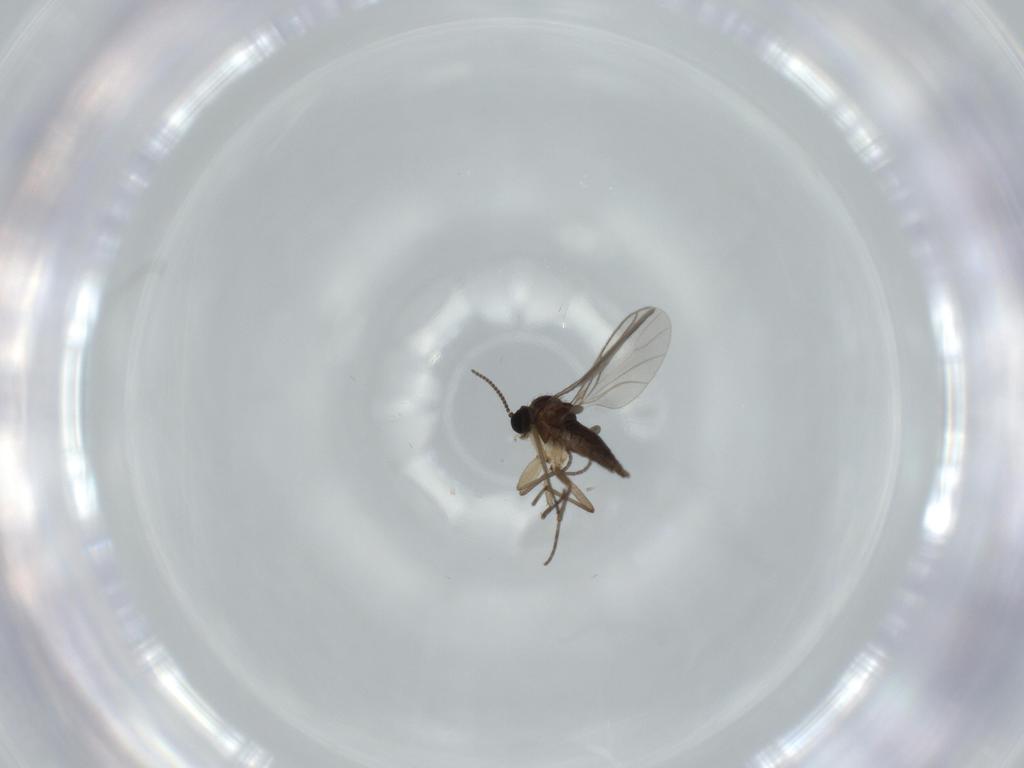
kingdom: Animalia
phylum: Arthropoda
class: Insecta
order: Diptera
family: Sciaridae
